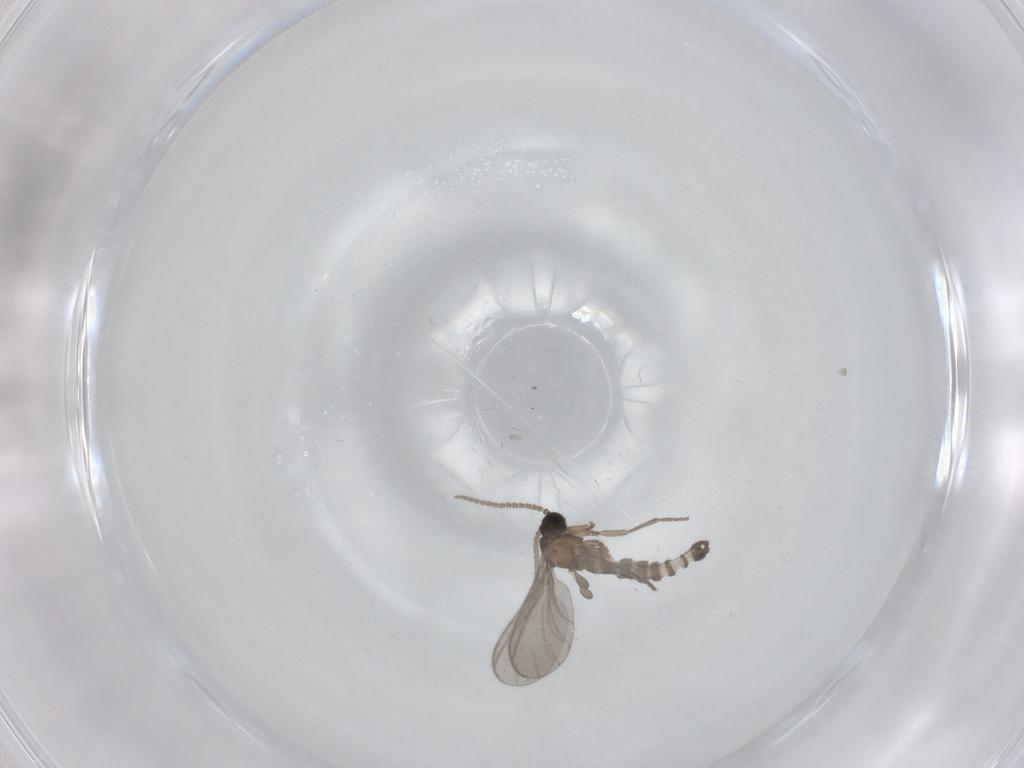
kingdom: Animalia
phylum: Arthropoda
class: Insecta
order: Diptera
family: Sciaridae
